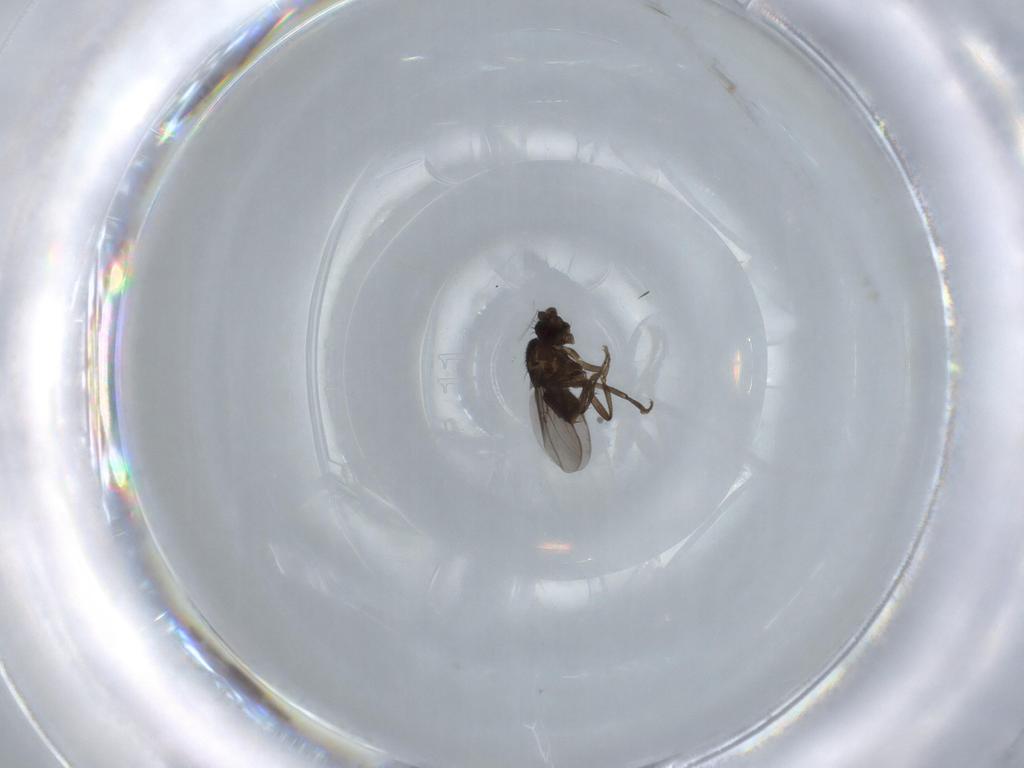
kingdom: Animalia
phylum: Arthropoda
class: Insecta
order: Diptera
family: Sphaeroceridae
